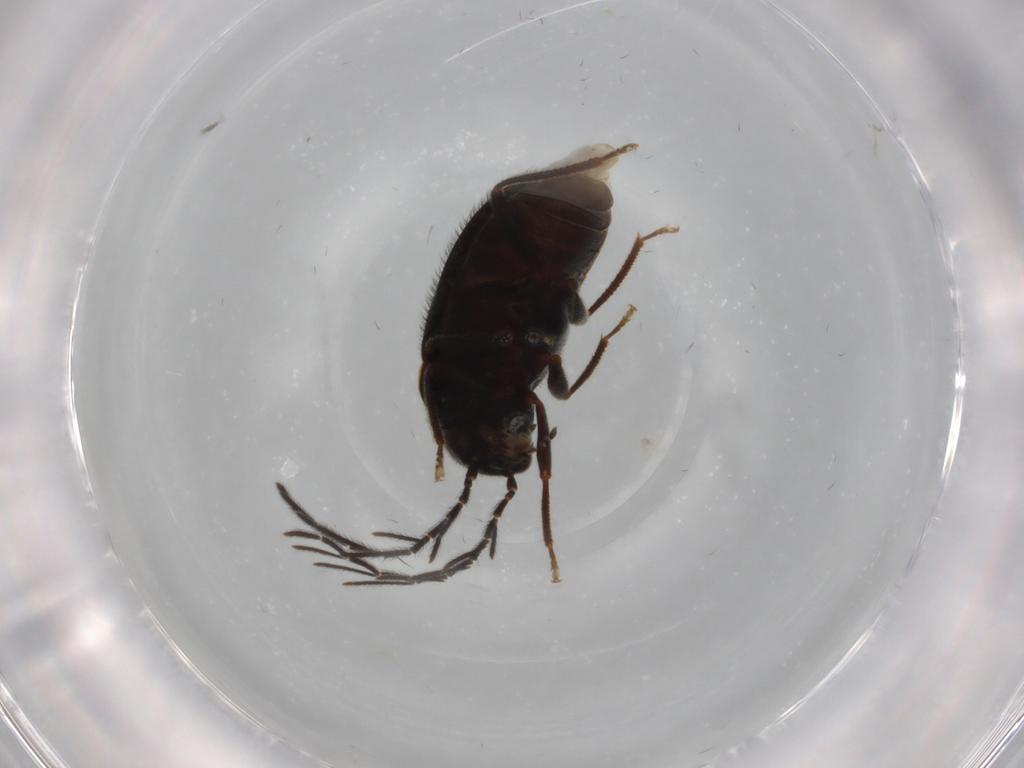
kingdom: Animalia
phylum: Arthropoda
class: Insecta
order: Coleoptera
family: Ptilodactylidae
